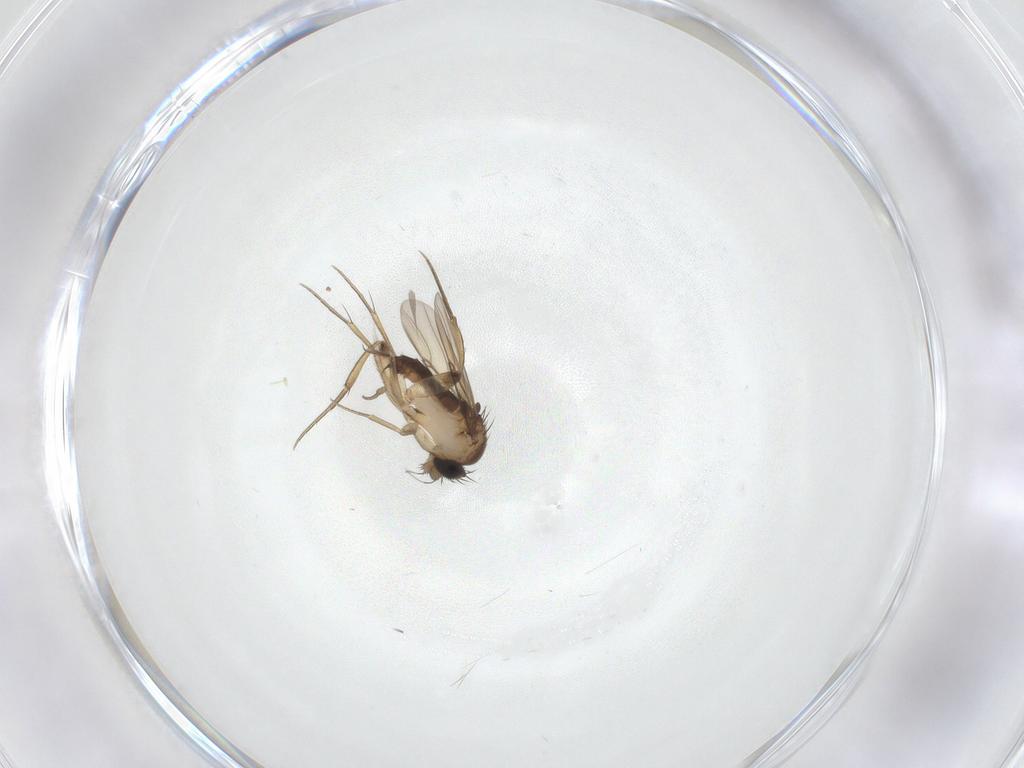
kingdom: Animalia
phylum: Arthropoda
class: Insecta
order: Diptera
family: Phoridae
